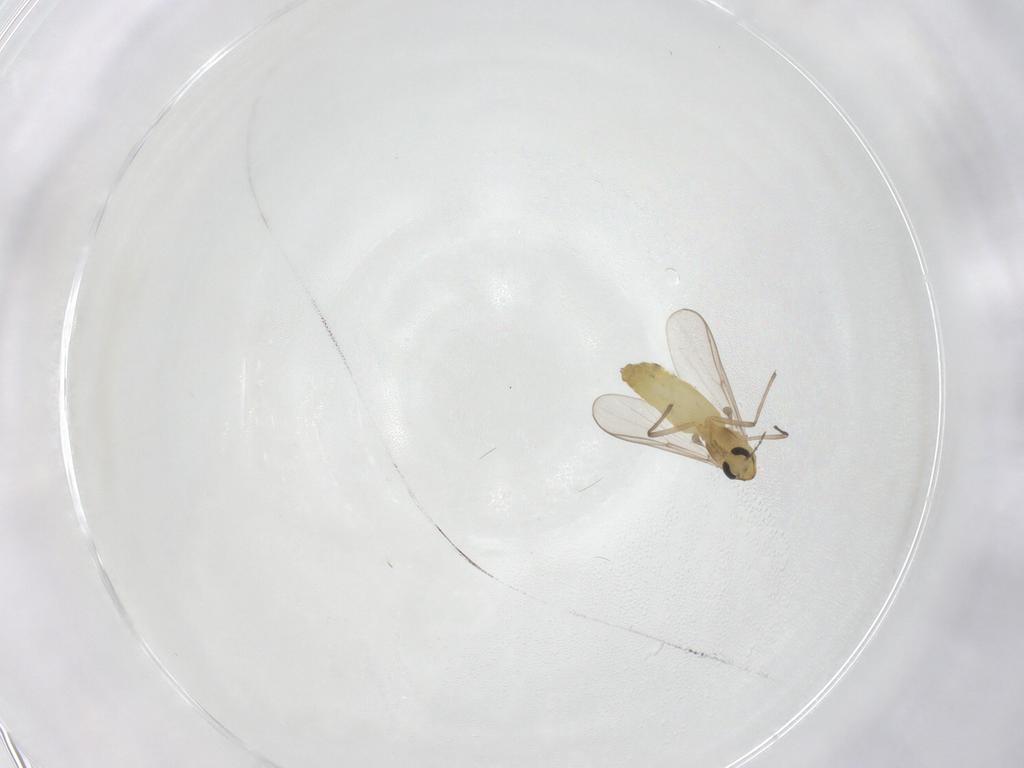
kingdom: Animalia
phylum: Arthropoda
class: Insecta
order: Diptera
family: Chironomidae
